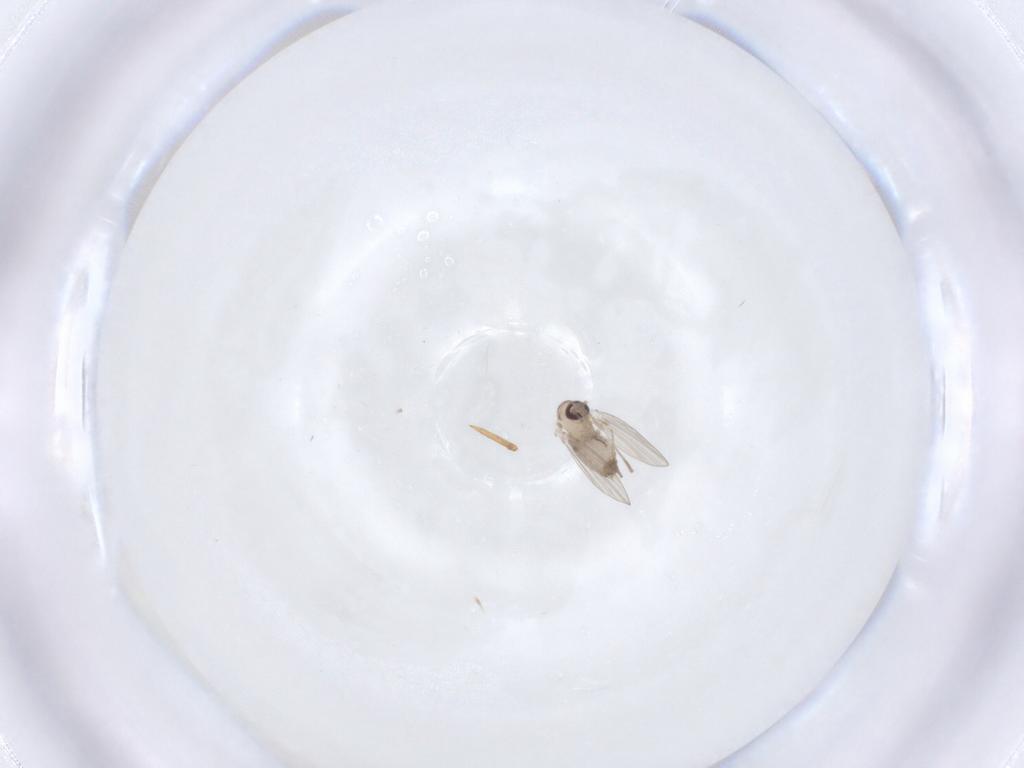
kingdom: Animalia
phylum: Arthropoda
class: Insecta
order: Diptera
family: Psychodidae
